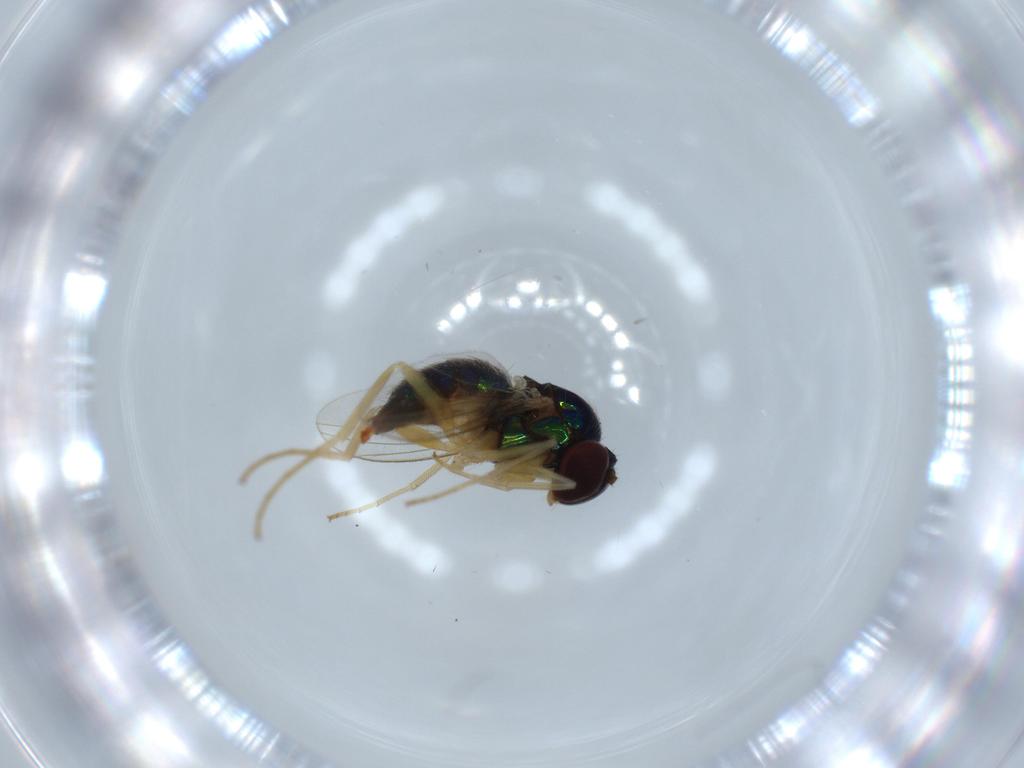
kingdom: Animalia
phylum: Arthropoda
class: Insecta
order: Diptera
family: Dolichopodidae
